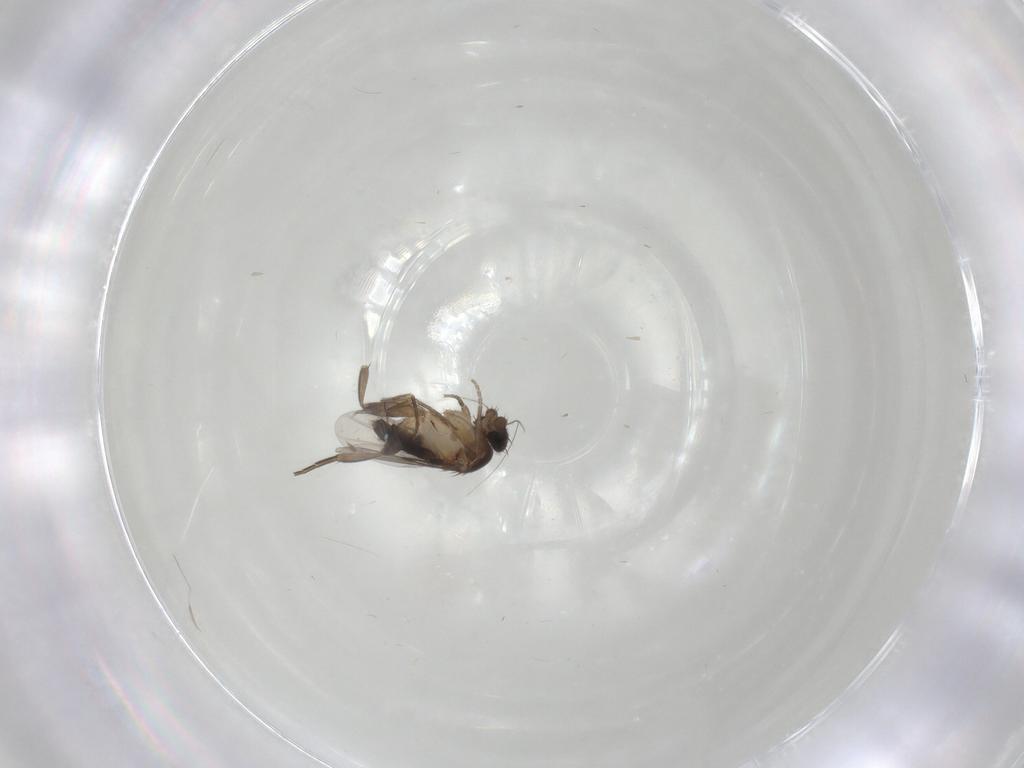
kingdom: Animalia
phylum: Arthropoda
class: Insecta
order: Diptera
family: Phoridae
